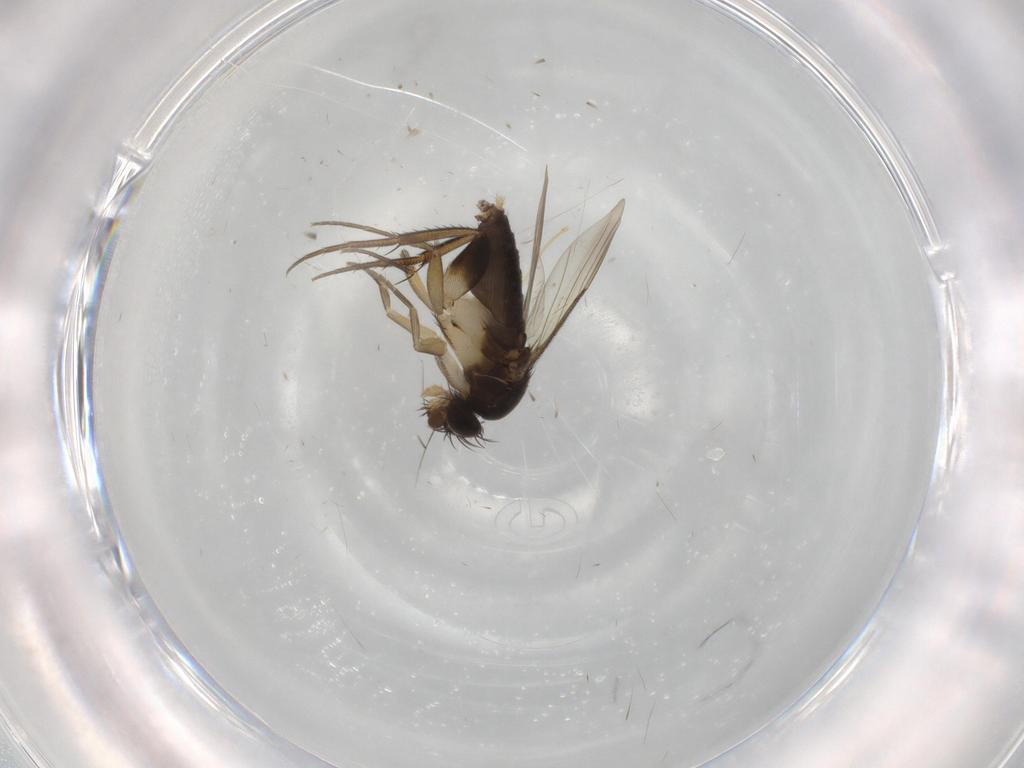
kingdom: Animalia
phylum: Arthropoda
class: Insecta
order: Diptera
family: Phoridae
